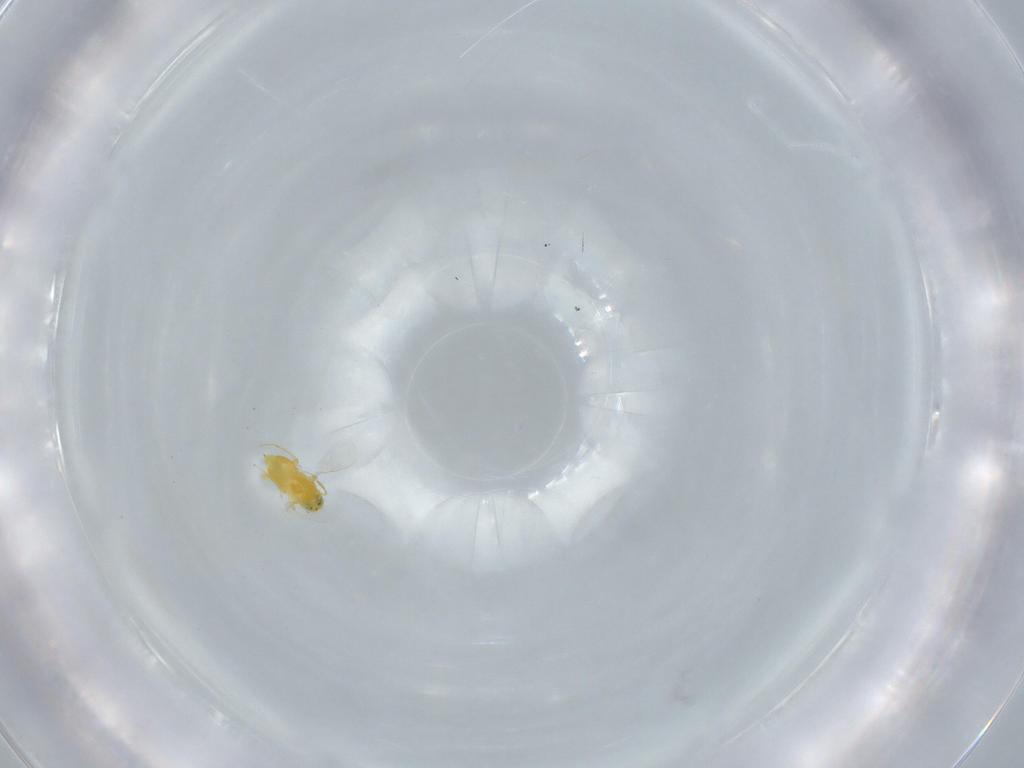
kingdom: Animalia
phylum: Arthropoda
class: Insecta
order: Hymenoptera
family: Aphelinidae
